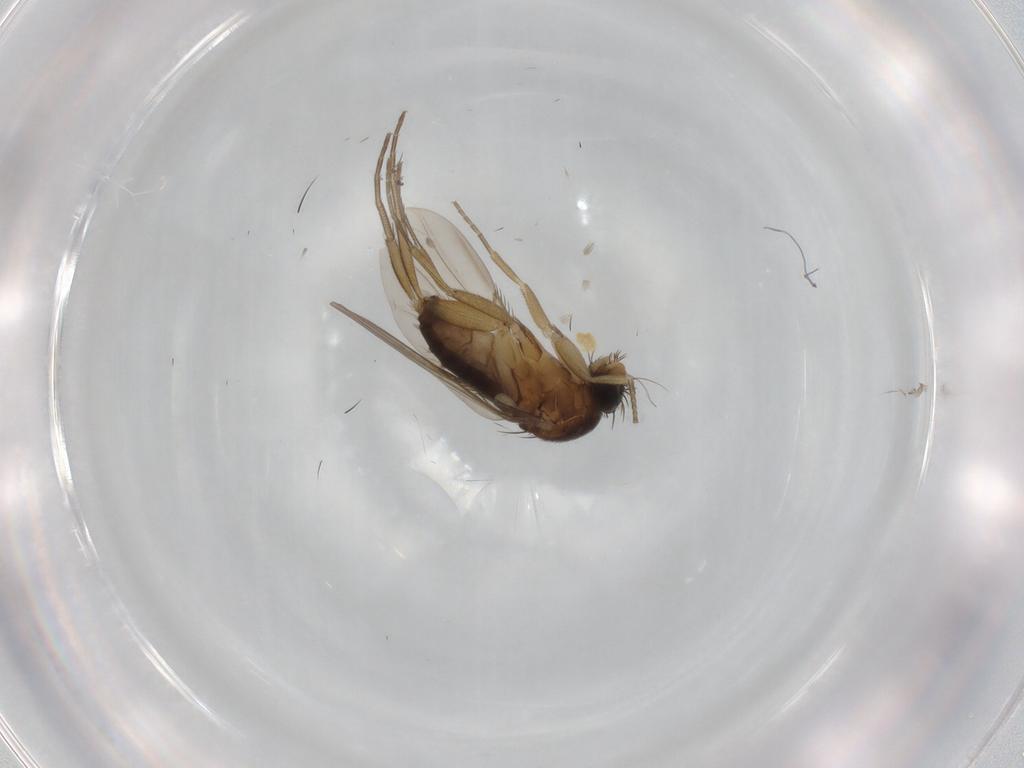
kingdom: Animalia
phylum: Arthropoda
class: Insecta
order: Diptera
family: Phoridae
